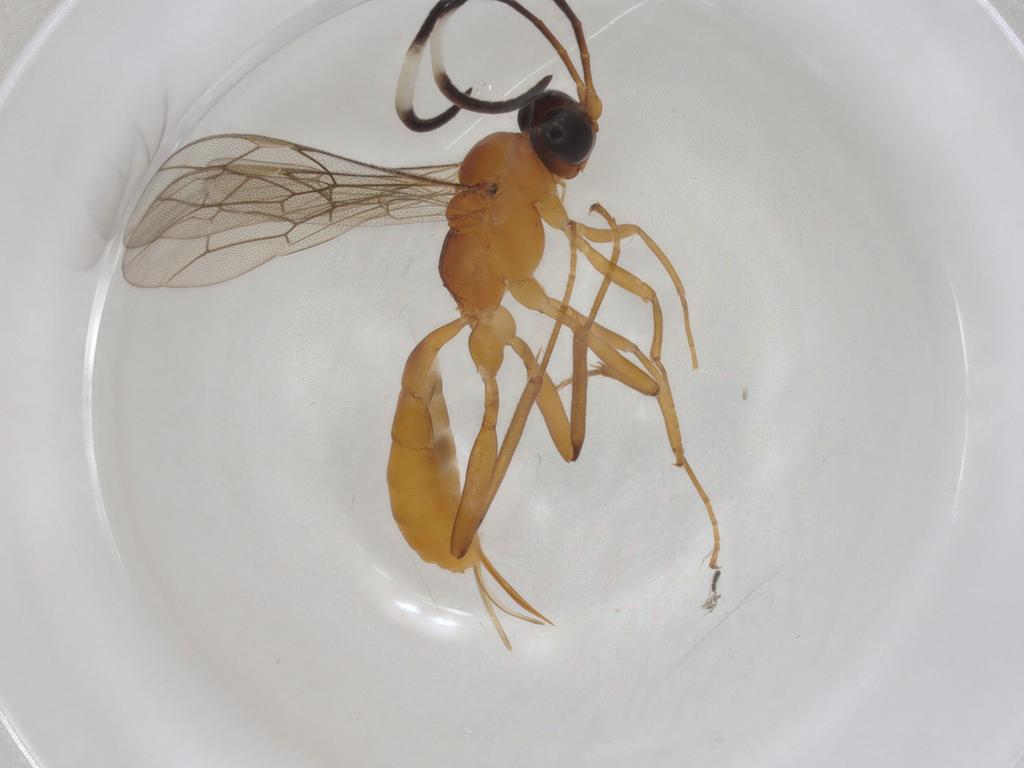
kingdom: Animalia
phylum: Arthropoda
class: Insecta
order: Hymenoptera
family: Ichneumonidae
